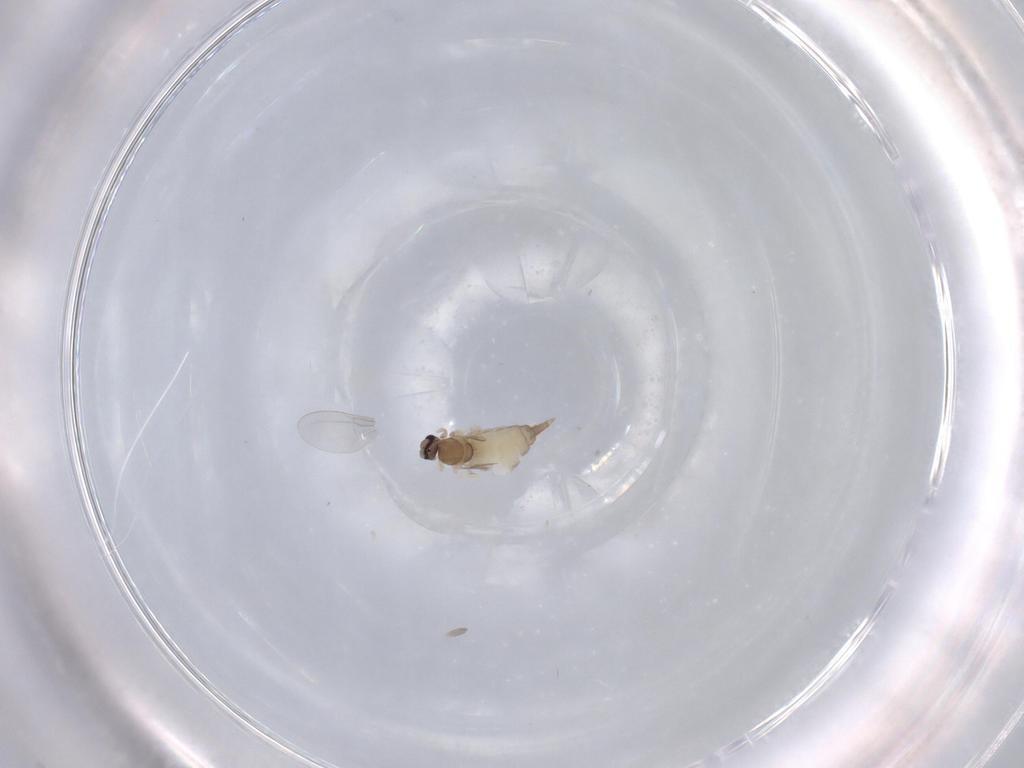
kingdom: Animalia
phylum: Arthropoda
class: Insecta
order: Diptera
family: Cecidomyiidae
